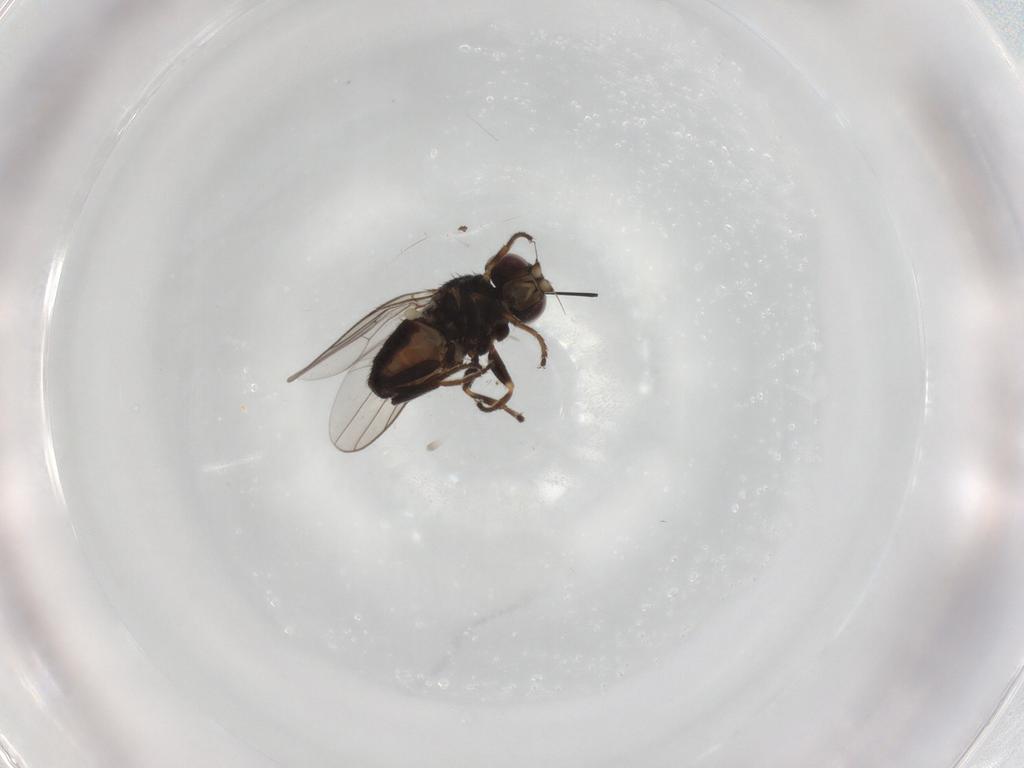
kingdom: Animalia
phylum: Arthropoda
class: Insecta
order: Diptera
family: Chloropidae
